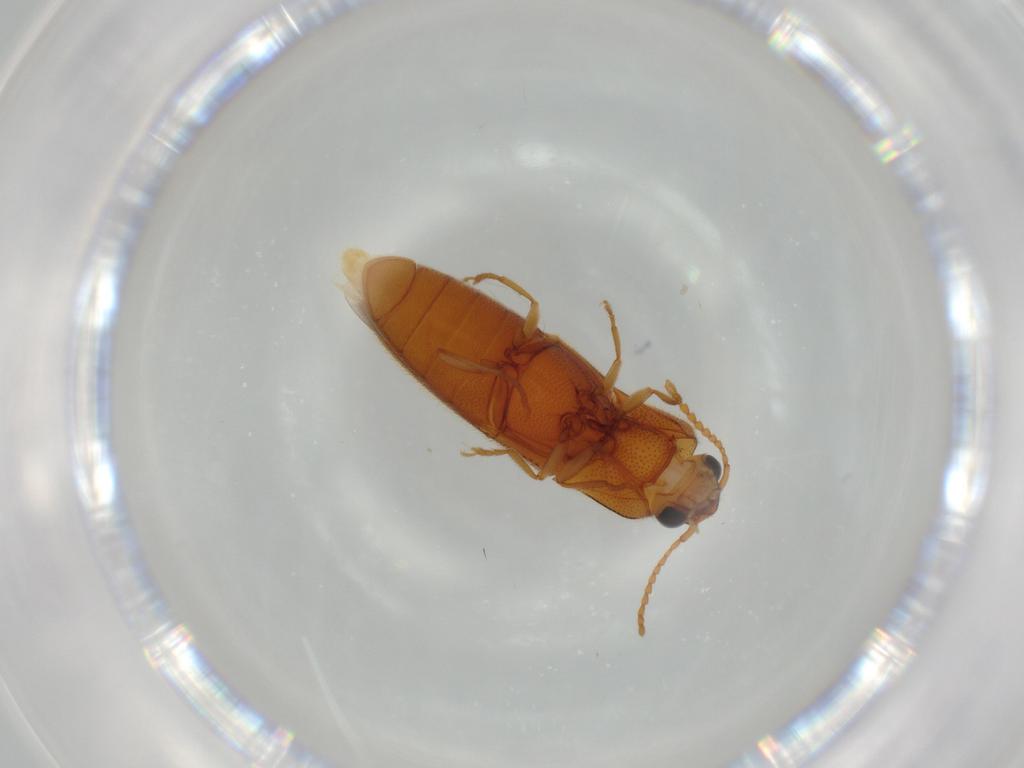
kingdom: Animalia
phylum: Arthropoda
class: Insecta
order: Coleoptera
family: Elateridae
